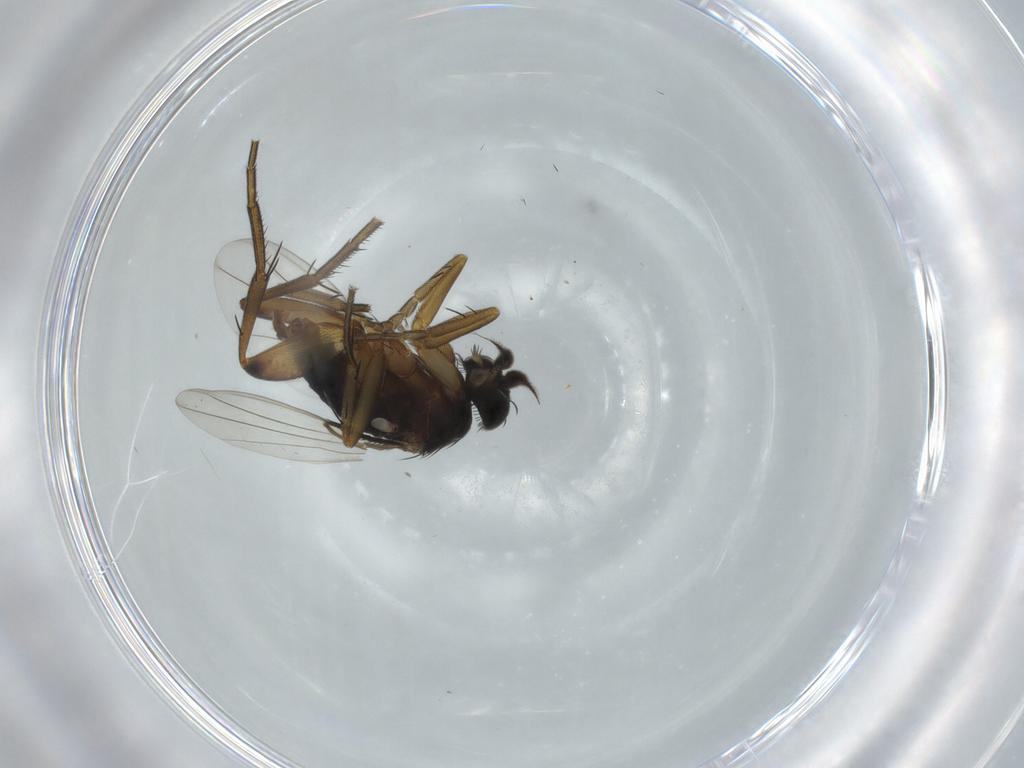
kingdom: Animalia
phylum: Arthropoda
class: Insecta
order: Diptera
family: Phoridae
